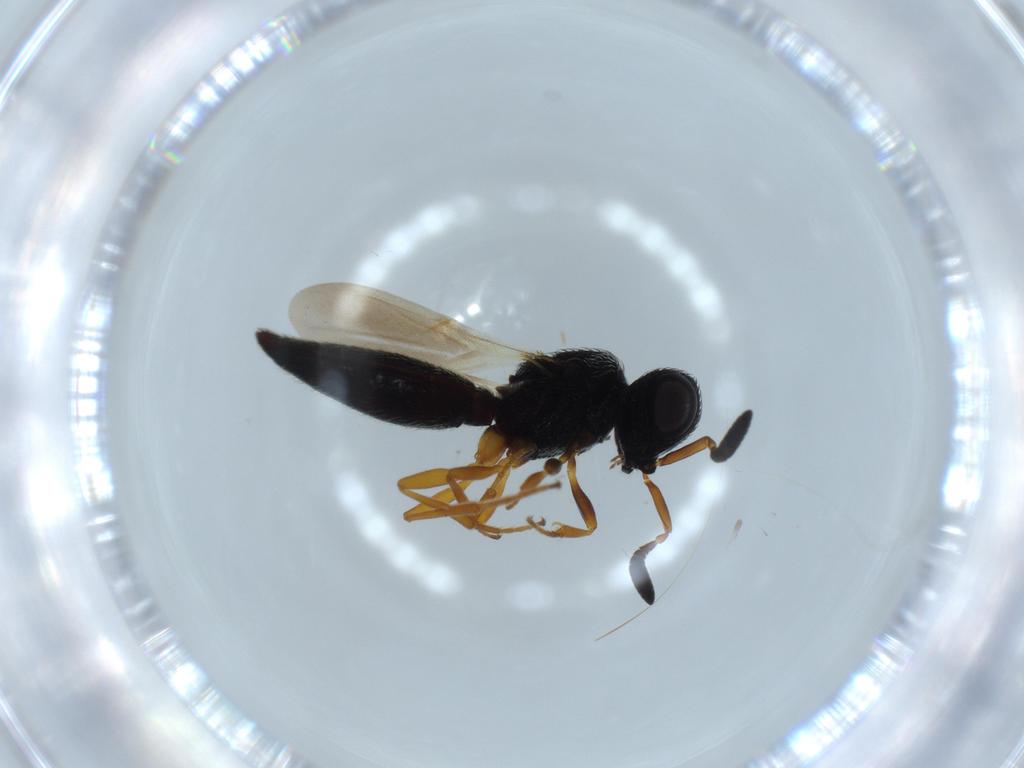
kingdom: Animalia
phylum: Arthropoda
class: Insecta
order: Hymenoptera
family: Scelionidae
